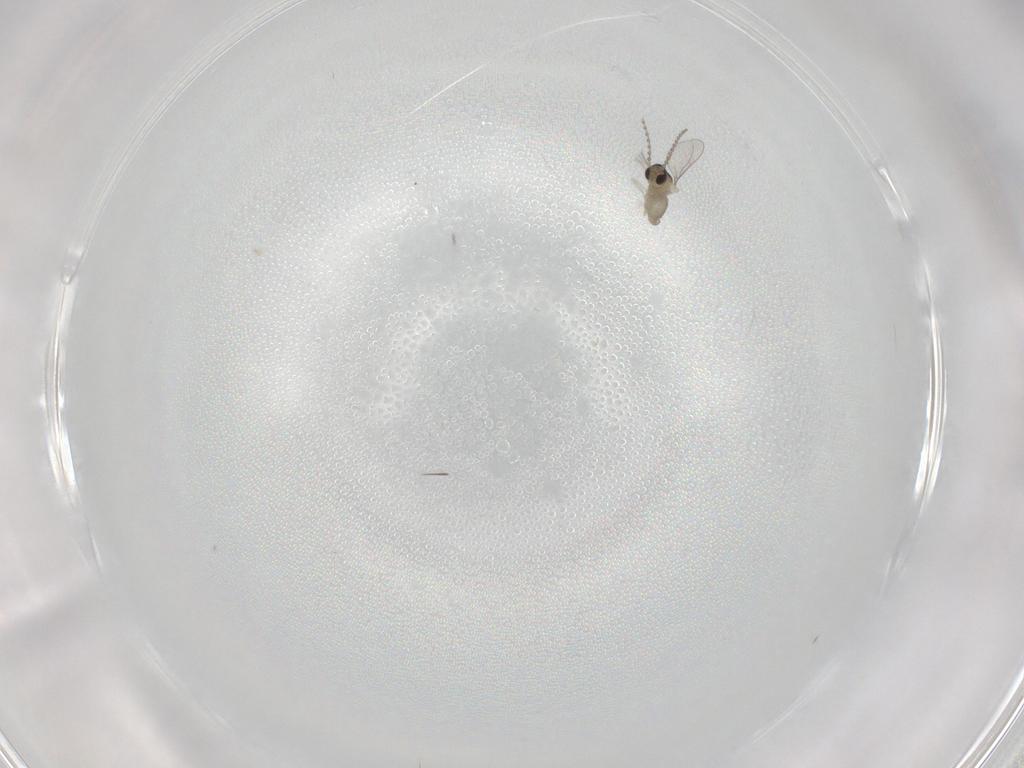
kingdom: Animalia
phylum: Arthropoda
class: Insecta
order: Diptera
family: Cecidomyiidae
